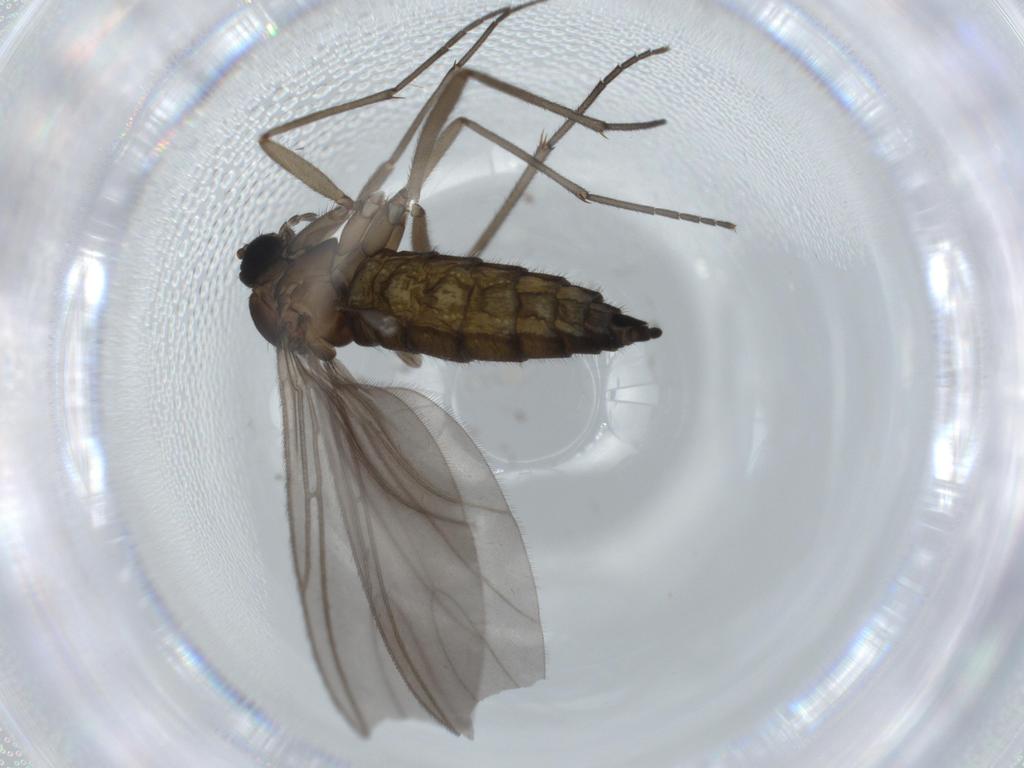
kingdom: Animalia
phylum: Arthropoda
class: Insecta
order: Diptera
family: Sciaridae
